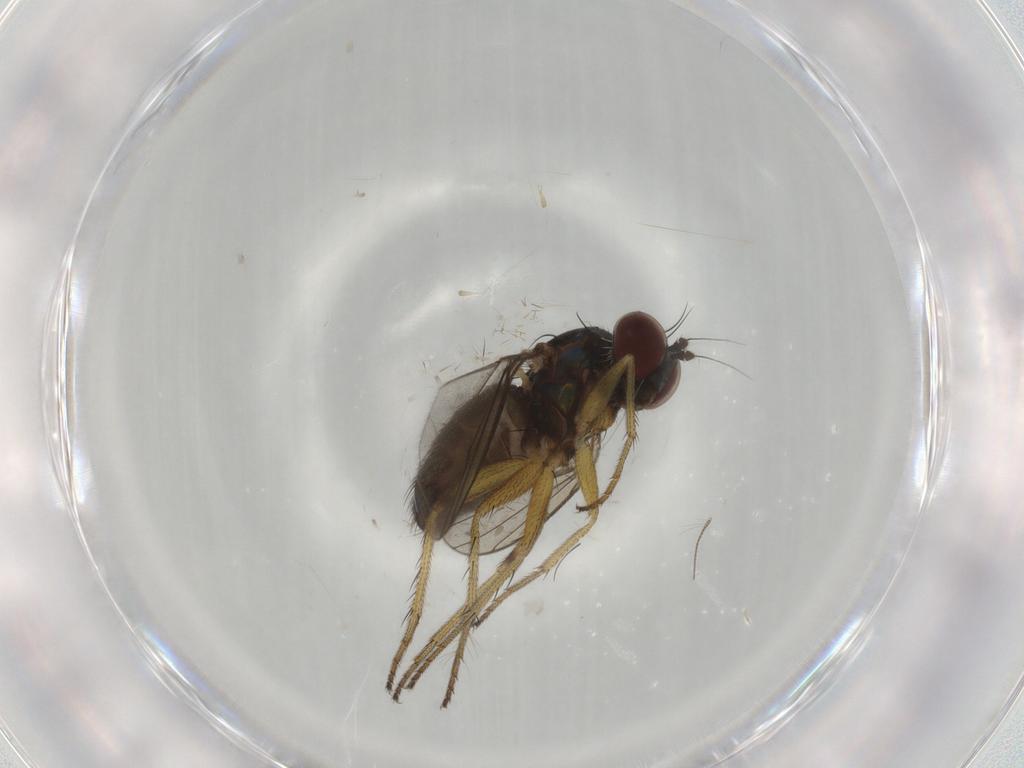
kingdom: Animalia
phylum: Arthropoda
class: Insecta
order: Diptera
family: Dolichopodidae
